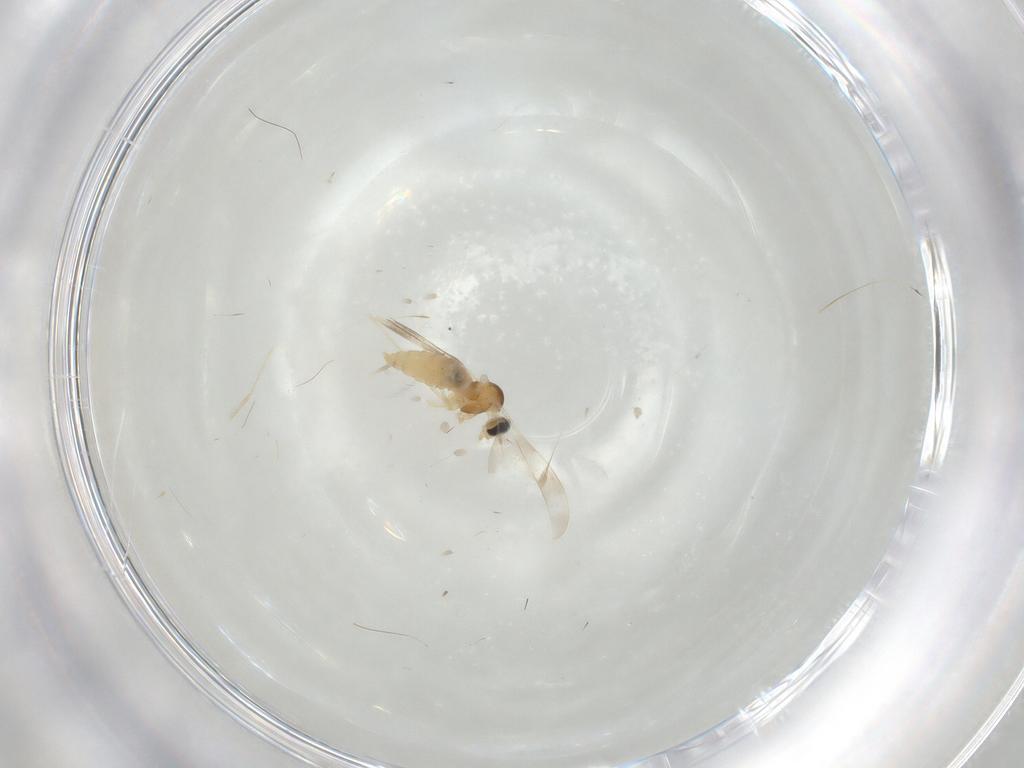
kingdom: Animalia
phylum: Arthropoda
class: Insecta
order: Diptera
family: Cecidomyiidae
